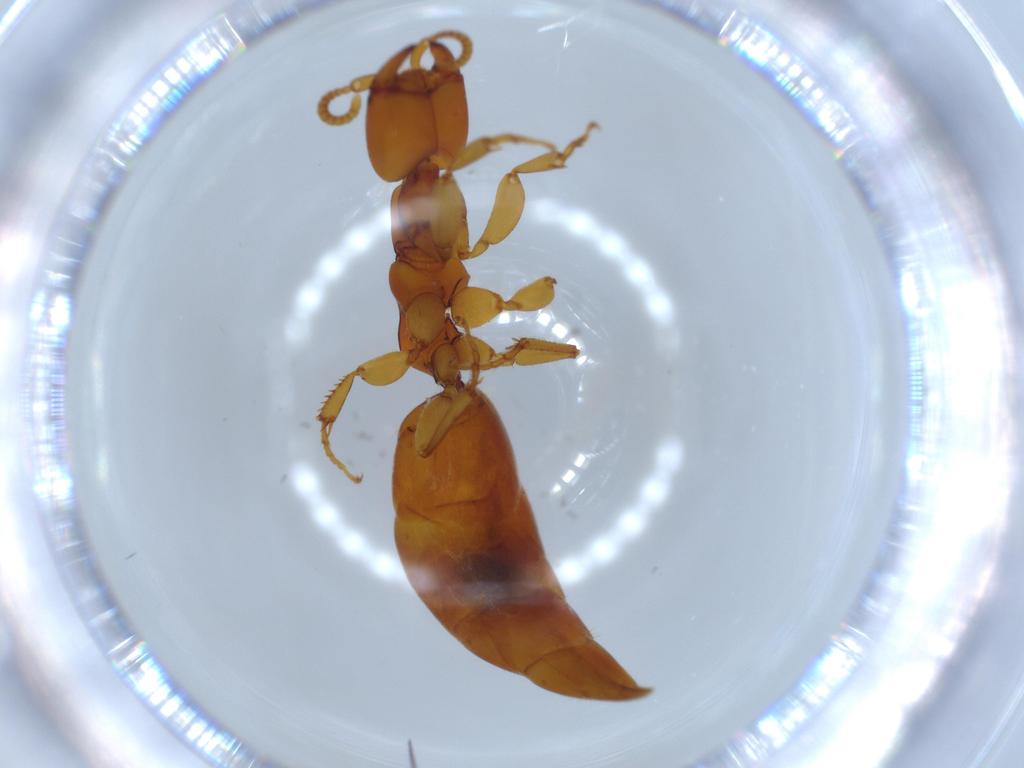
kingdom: Animalia
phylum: Arthropoda
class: Insecta
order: Hymenoptera
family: Bethylidae
